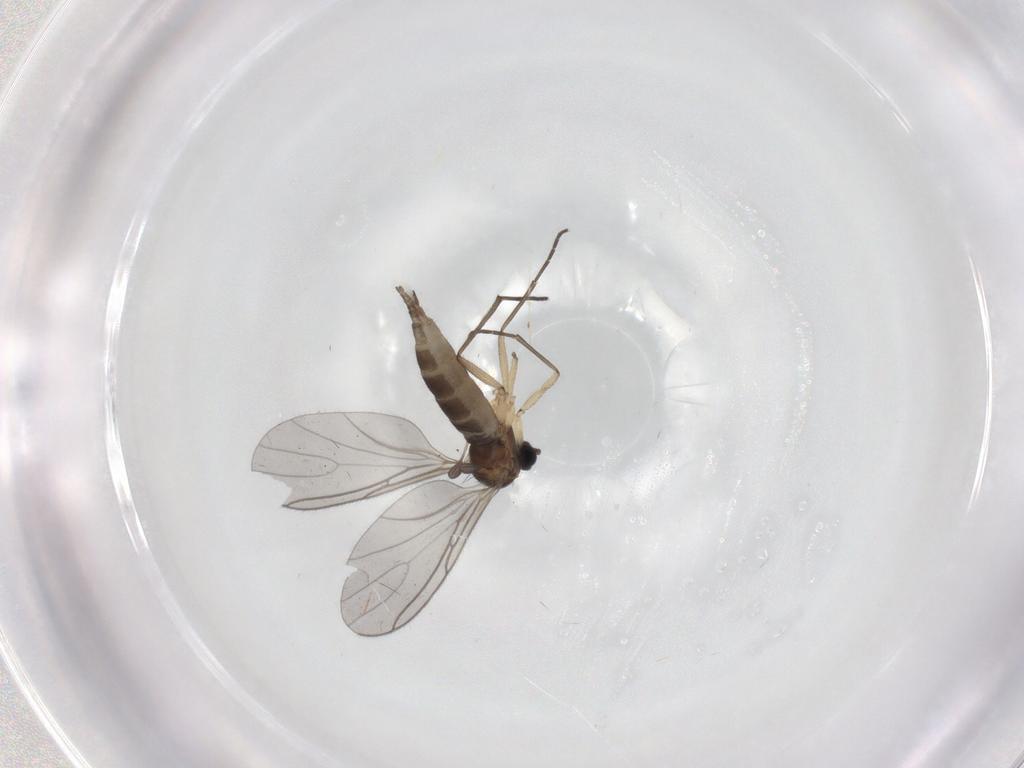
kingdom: Animalia
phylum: Arthropoda
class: Insecta
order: Diptera
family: Sciaridae
